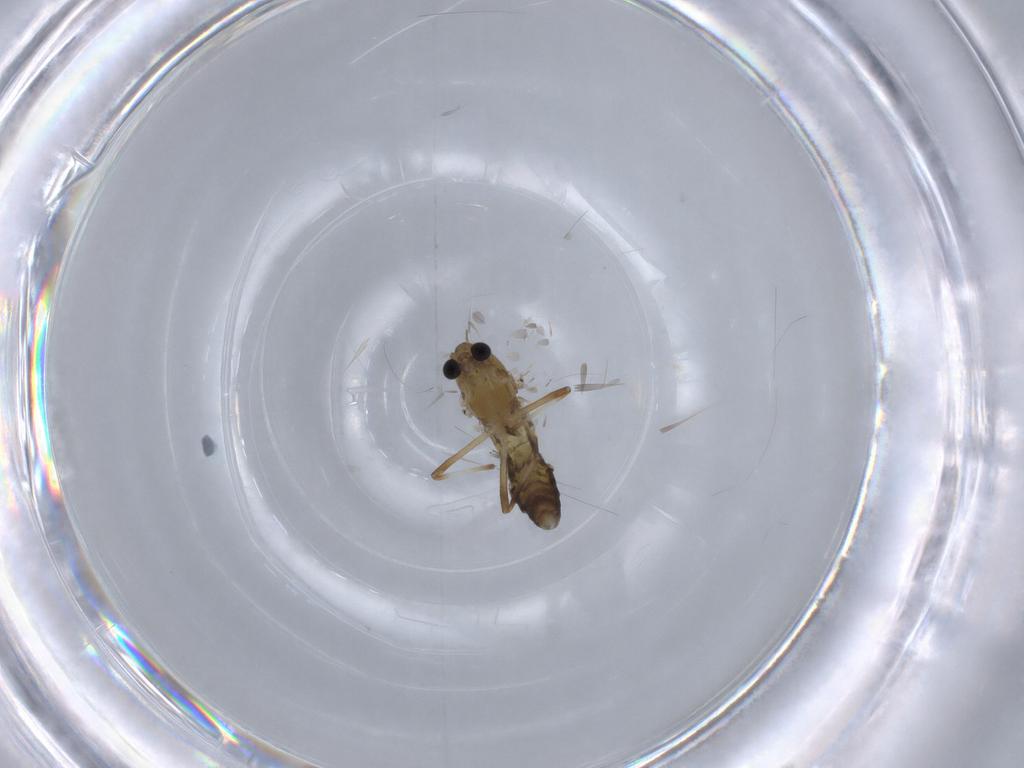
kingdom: Animalia
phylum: Arthropoda
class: Insecta
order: Diptera
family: Chironomidae
